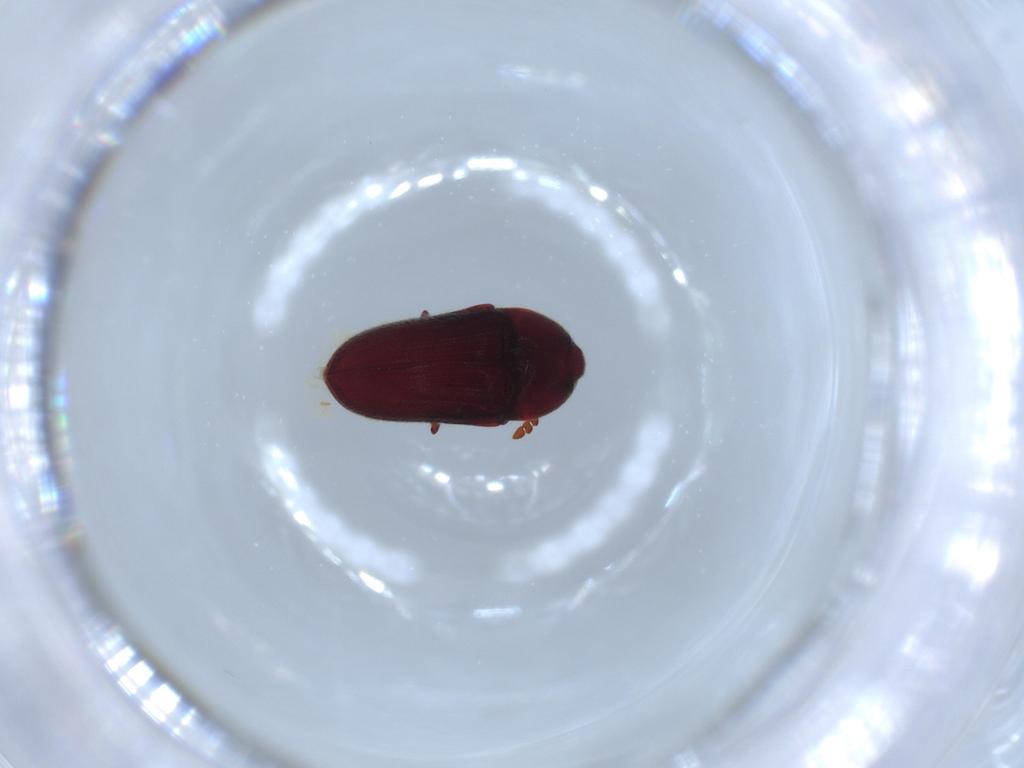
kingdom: Animalia
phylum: Arthropoda
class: Insecta
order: Coleoptera
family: Throscidae
